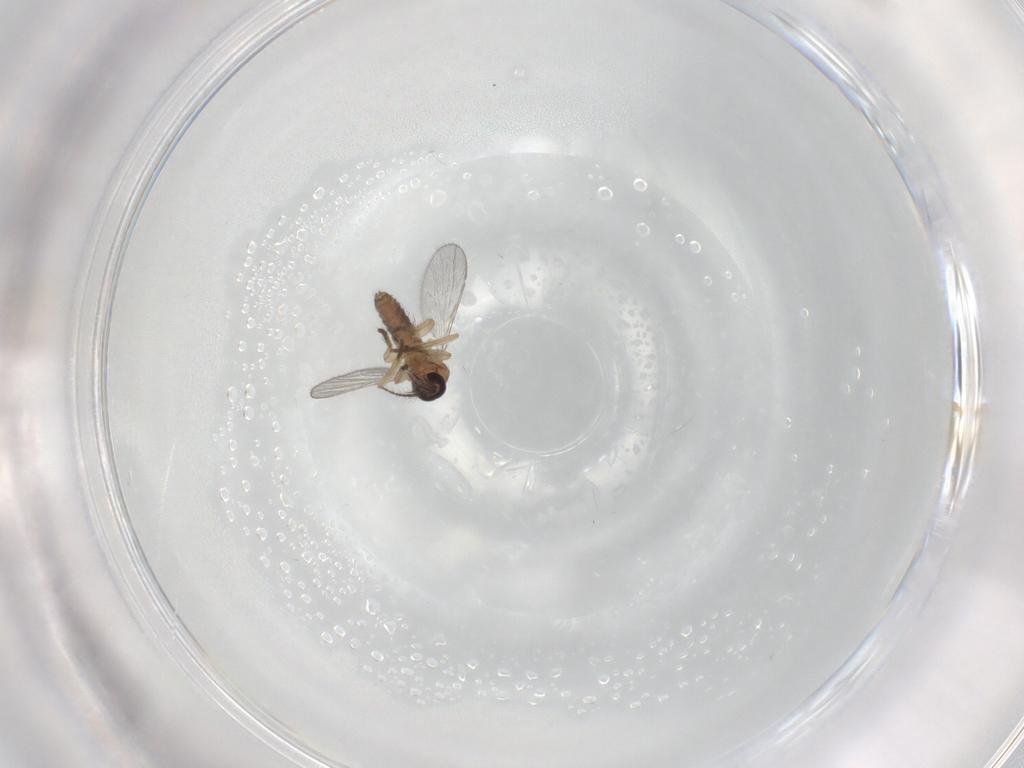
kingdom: Animalia
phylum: Arthropoda
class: Insecta
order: Diptera
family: Ceratopogonidae
